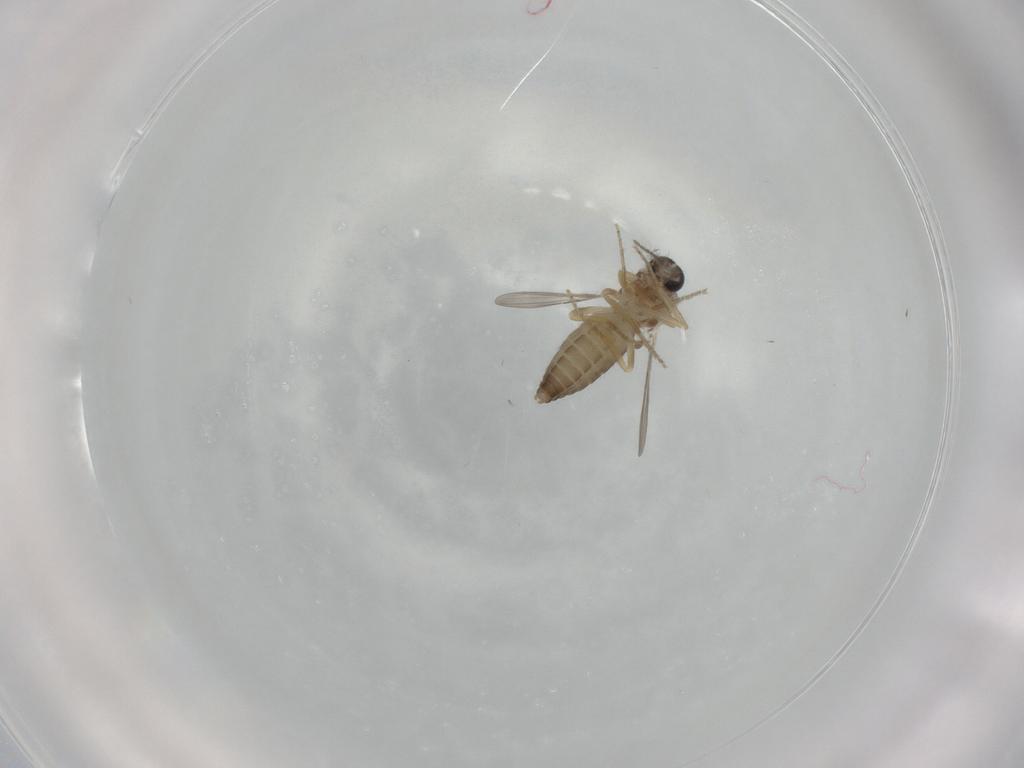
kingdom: Animalia
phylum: Arthropoda
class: Insecta
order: Diptera
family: Ceratopogonidae
